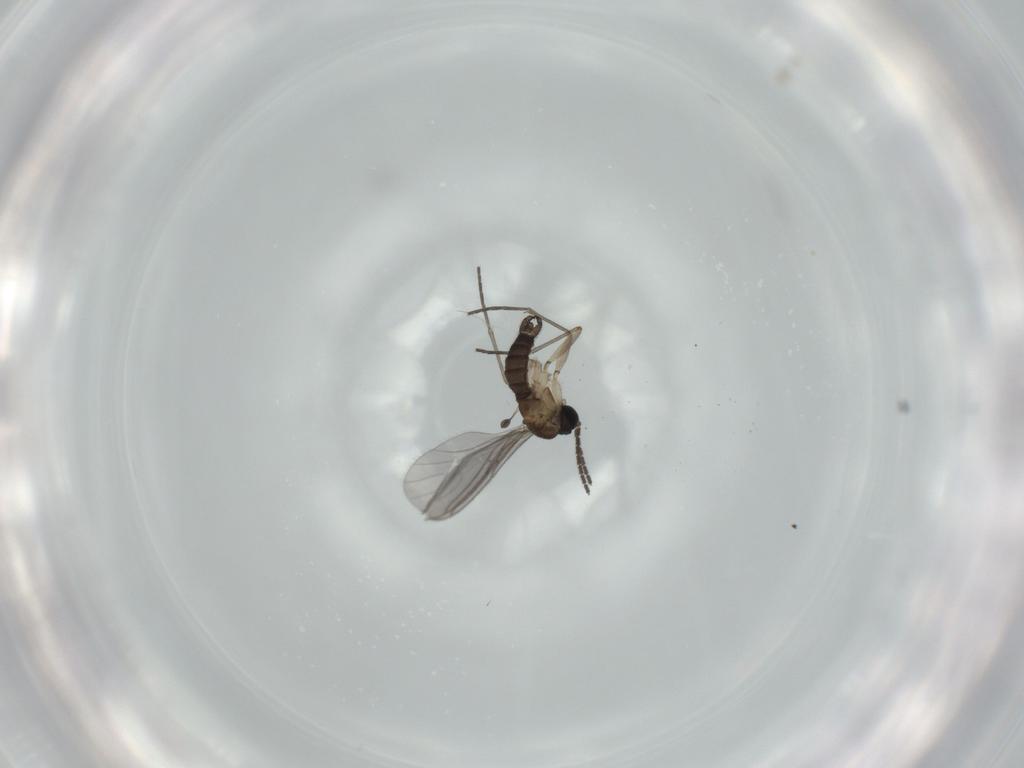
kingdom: Animalia
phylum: Arthropoda
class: Insecta
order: Diptera
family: Sciaridae
